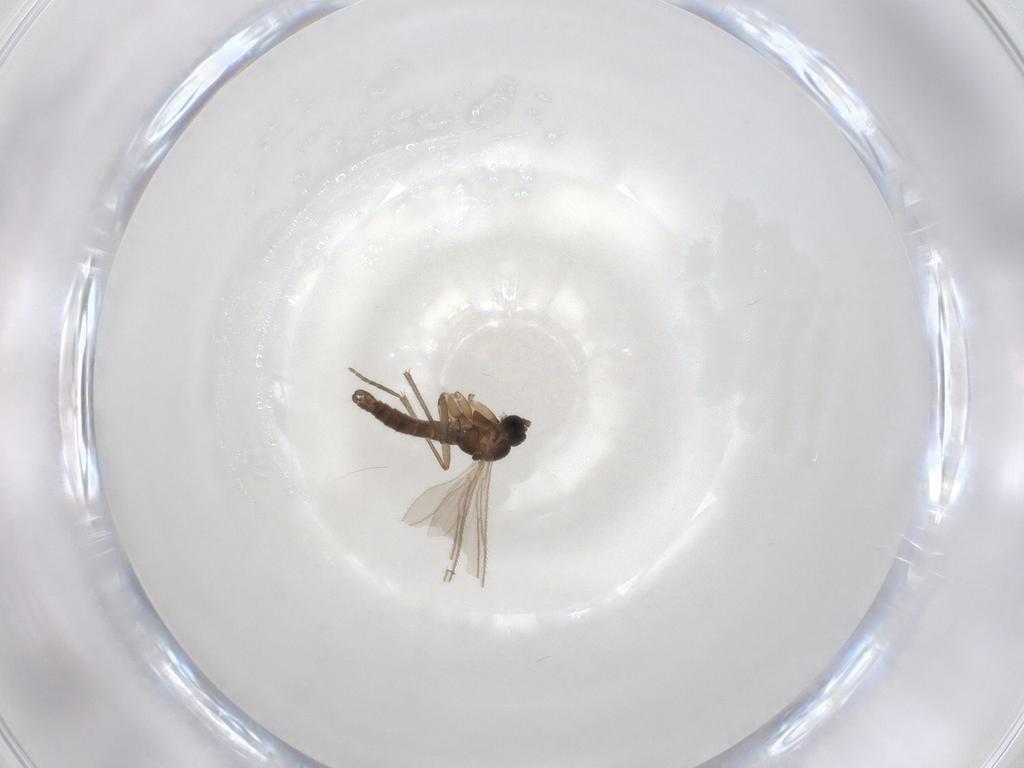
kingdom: Animalia
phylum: Arthropoda
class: Insecta
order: Diptera
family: Sciaridae
